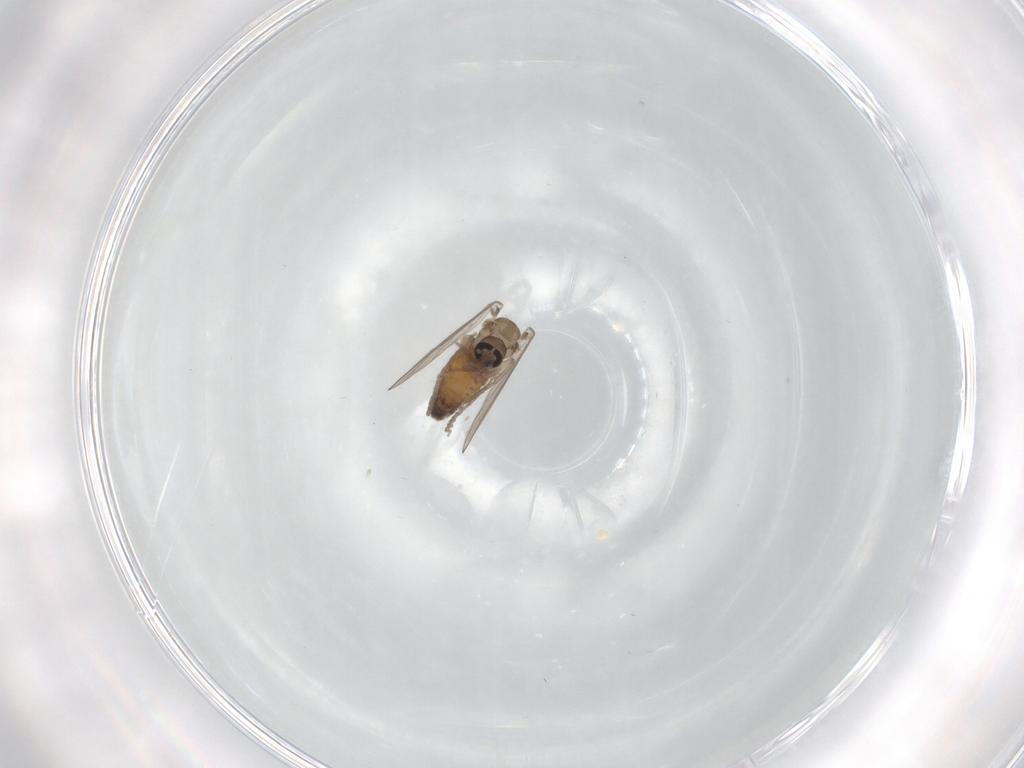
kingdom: Animalia
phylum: Arthropoda
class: Insecta
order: Diptera
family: Psychodidae
